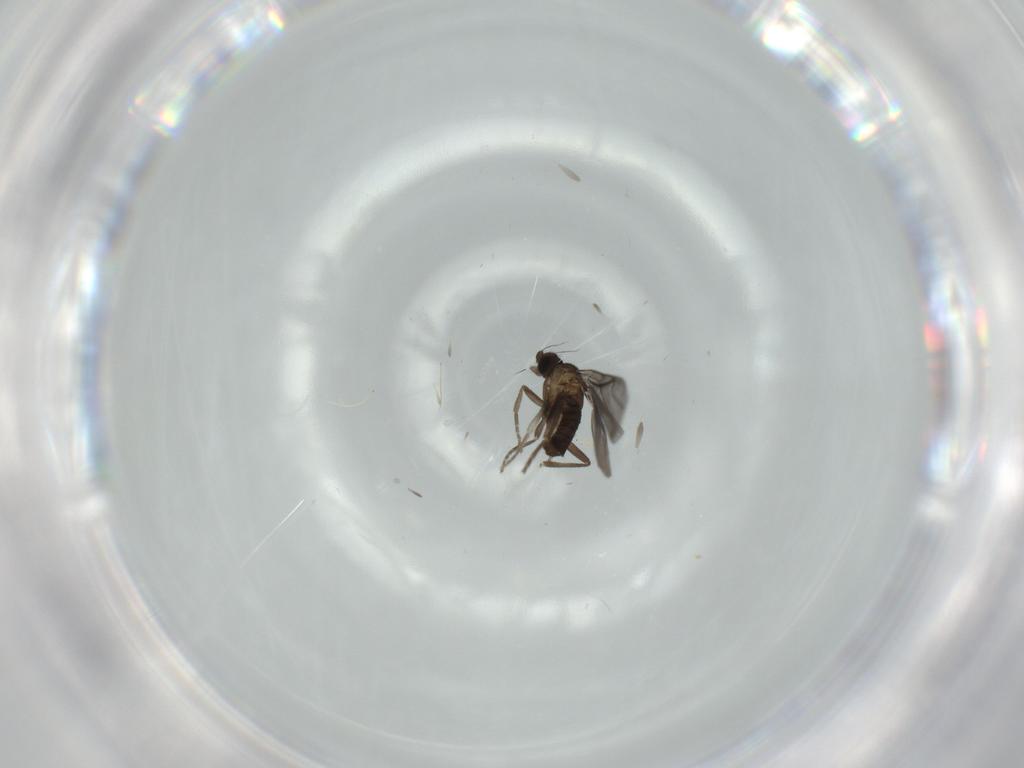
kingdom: Animalia
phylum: Arthropoda
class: Insecta
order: Diptera
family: Cecidomyiidae
